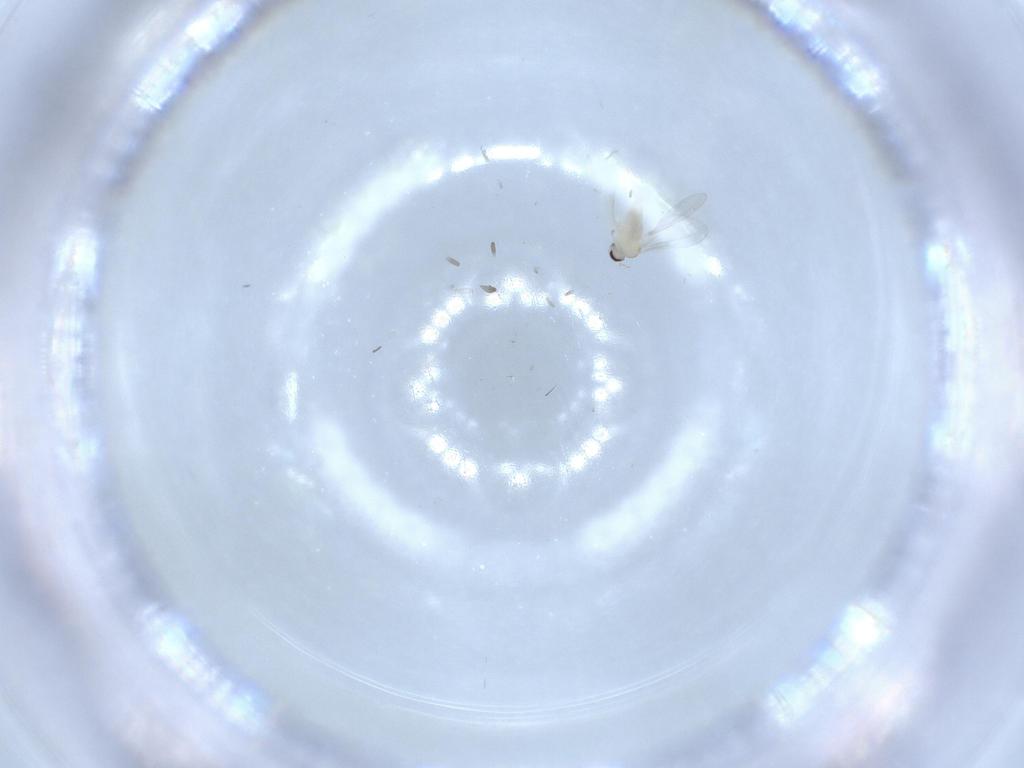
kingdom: Animalia
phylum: Arthropoda
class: Insecta
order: Diptera
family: Cecidomyiidae
